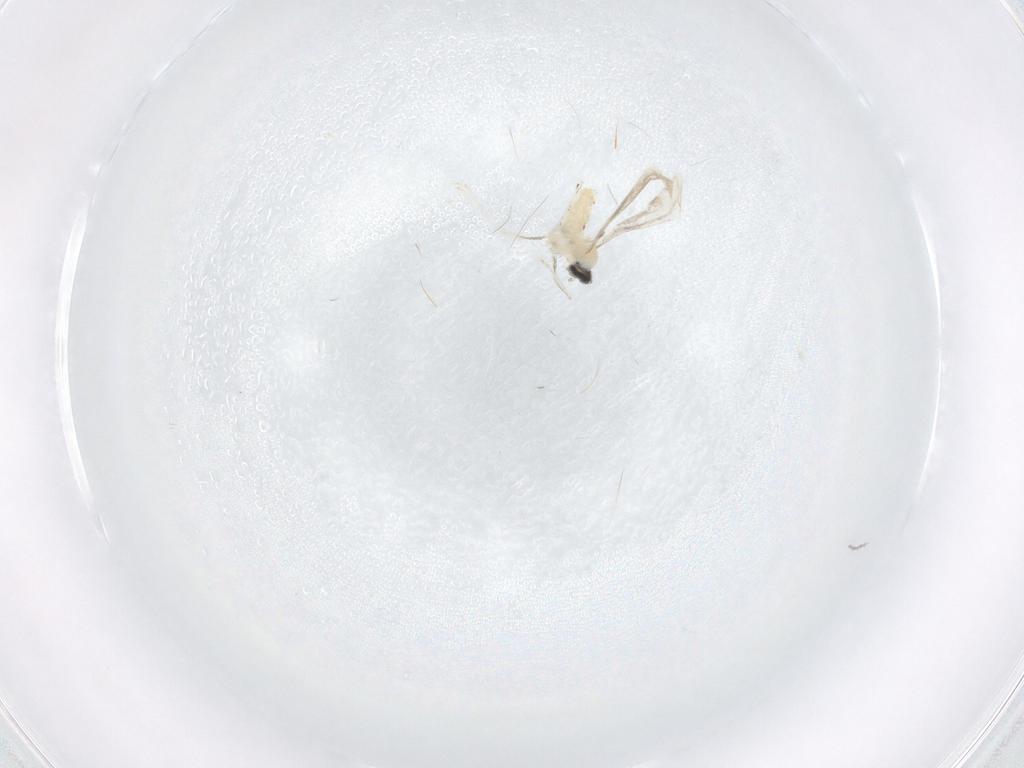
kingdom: Animalia
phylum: Arthropoda
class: Insecta
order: Diptera
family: Cecidomyiidae
